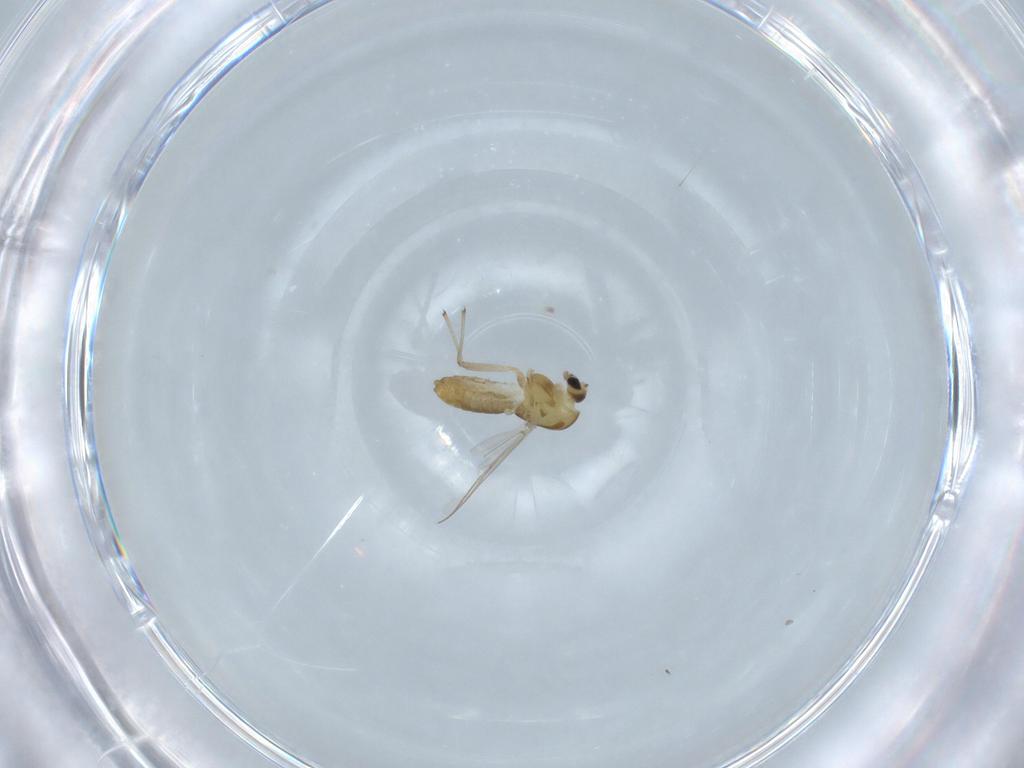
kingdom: Animalia
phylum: Arthropoda
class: Insecta
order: Diptera
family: Chironomidae
